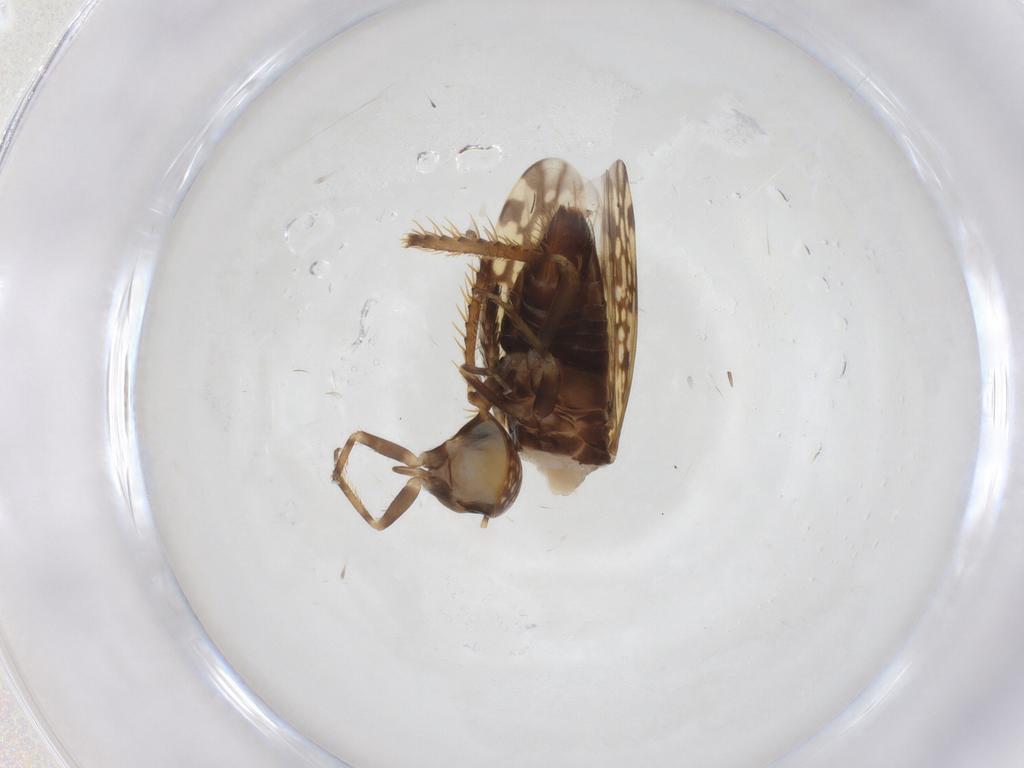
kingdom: Animalia
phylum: Arthropoda
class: Insecta
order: Hemiptera
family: Cicadellidae
